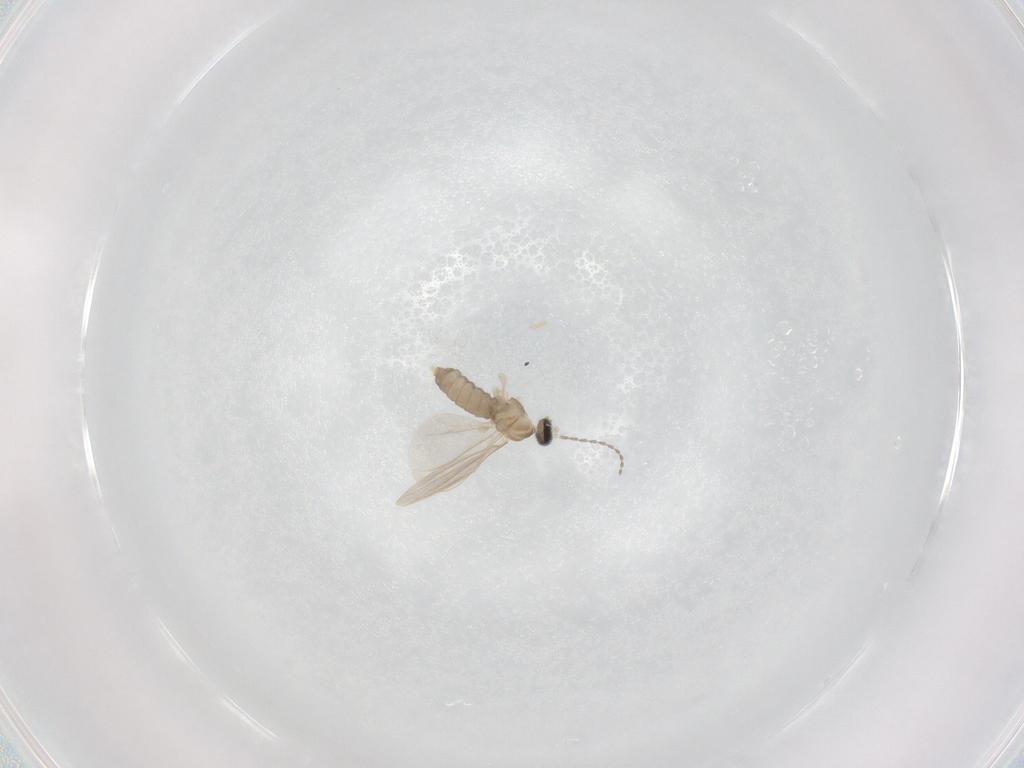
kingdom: Animalia
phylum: Arthropoda
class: Insecta
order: Diptera
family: Cecidomyiidae
